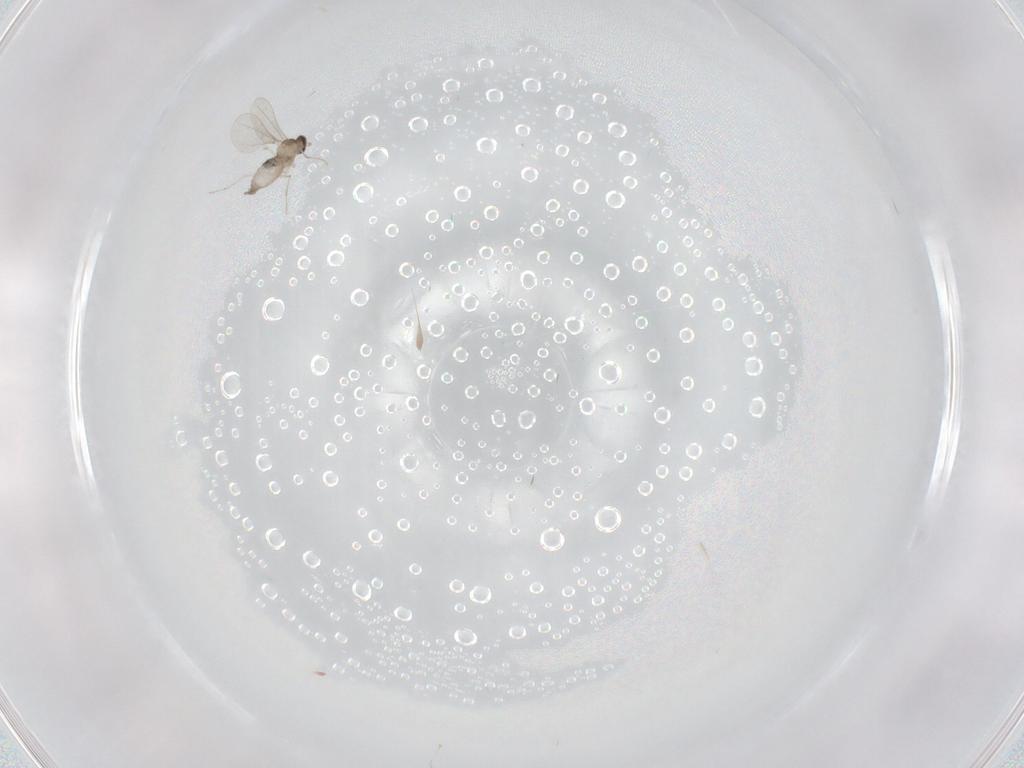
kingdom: Animalia
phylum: Arthropoda
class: Insecta
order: Diptera
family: Cecidomyiidae
